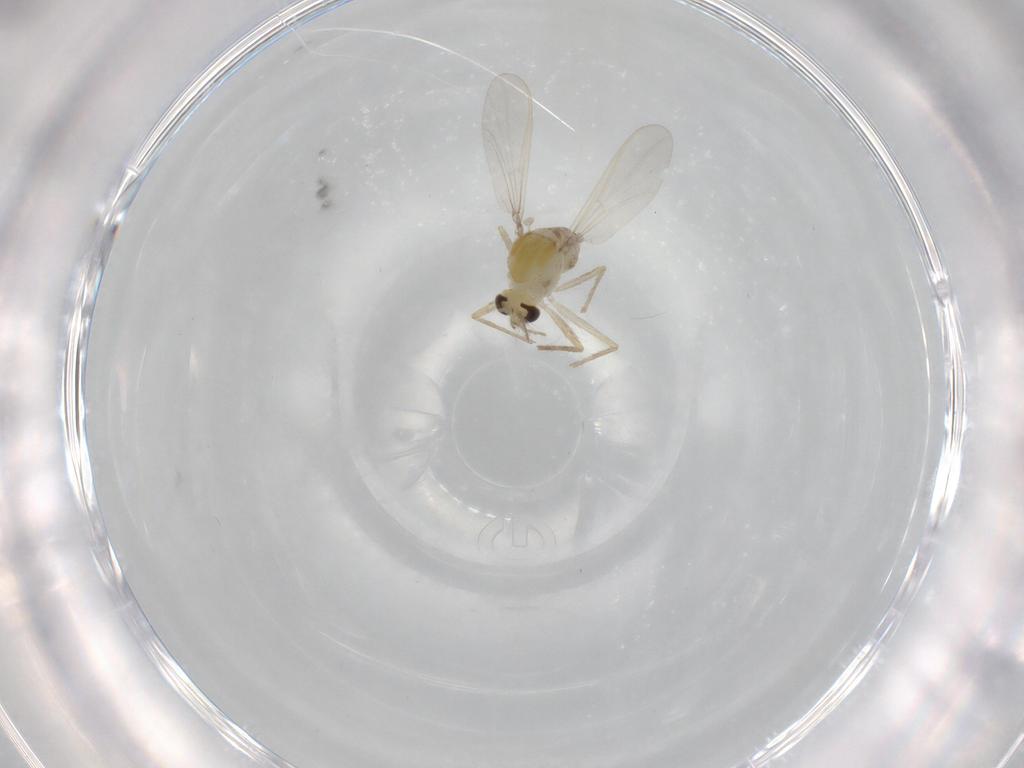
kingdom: Animalia
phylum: Arthropoda
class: Insecta
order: Diptera
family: Chironomidae
